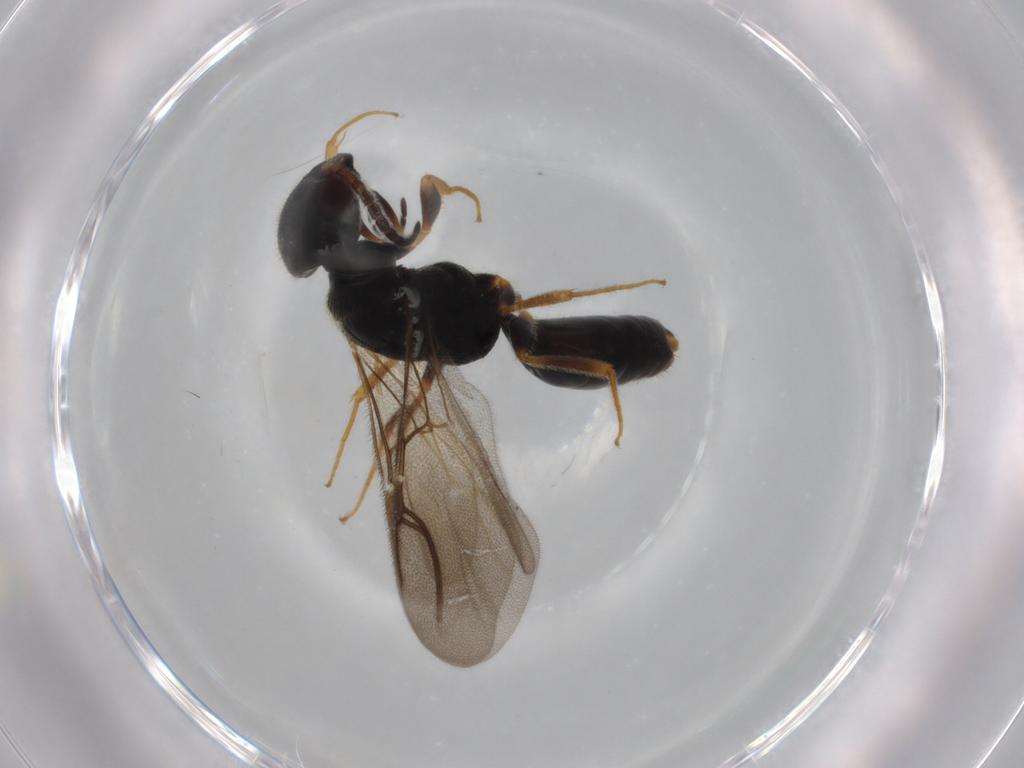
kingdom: Animalia
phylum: Arthropoda
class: Insecta
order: Hymenoptera
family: Bethylidae
